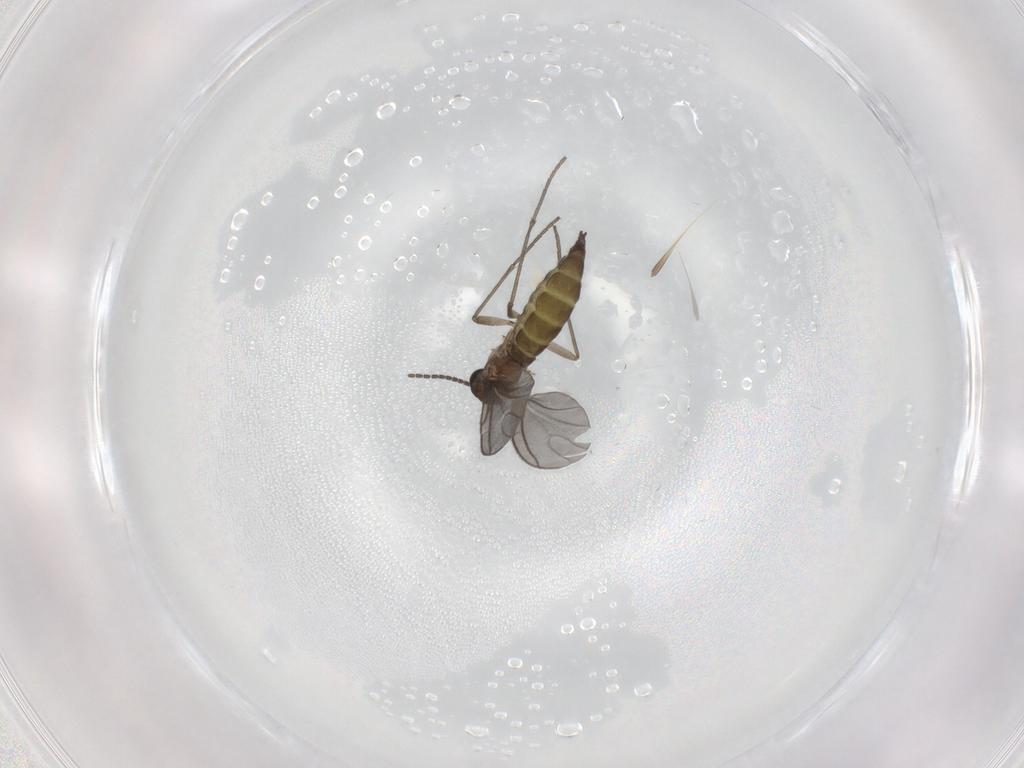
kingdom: Animalia
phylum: Arthropoda
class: Insecta
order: Diptera
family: Sciaridae
